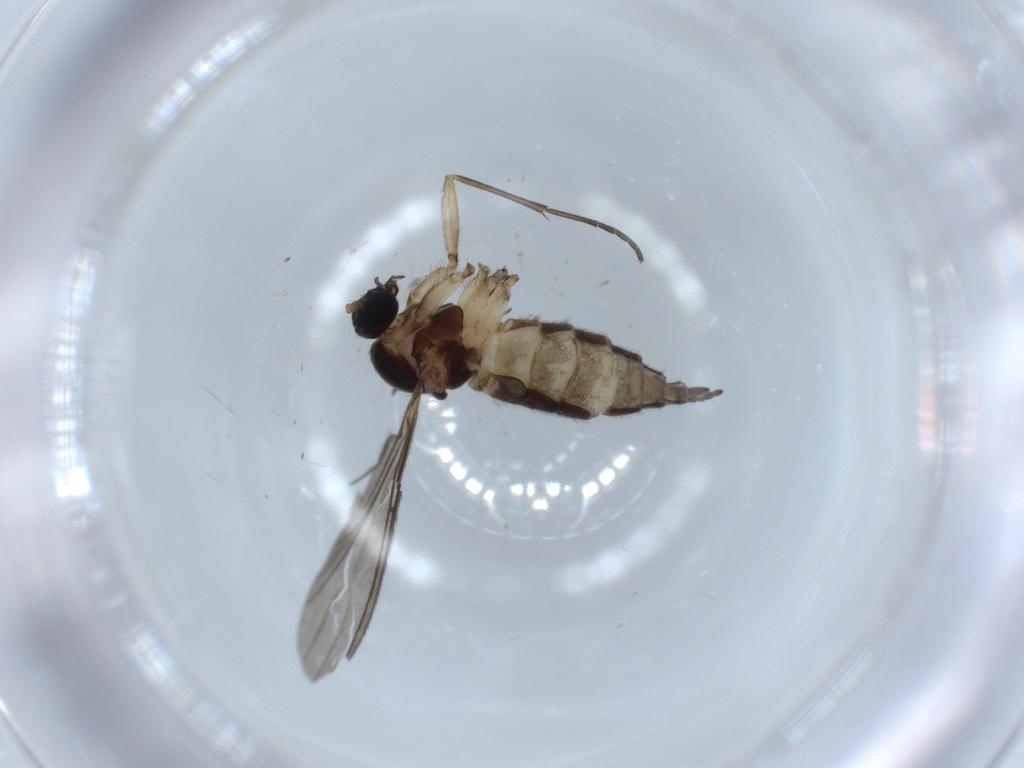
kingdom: Animalia
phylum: Arthropoda
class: Insecta
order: Diptera
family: Sciaridae
